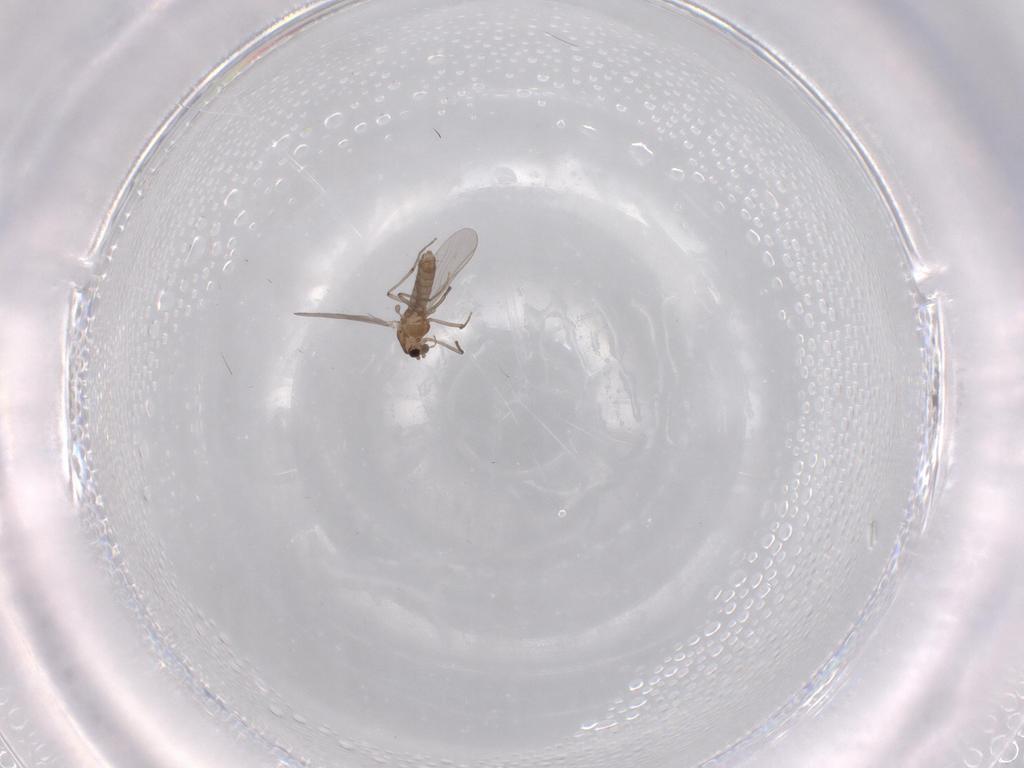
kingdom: Animalia
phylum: Arthropoda
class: Insecta
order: Diptera
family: Chironomidae
